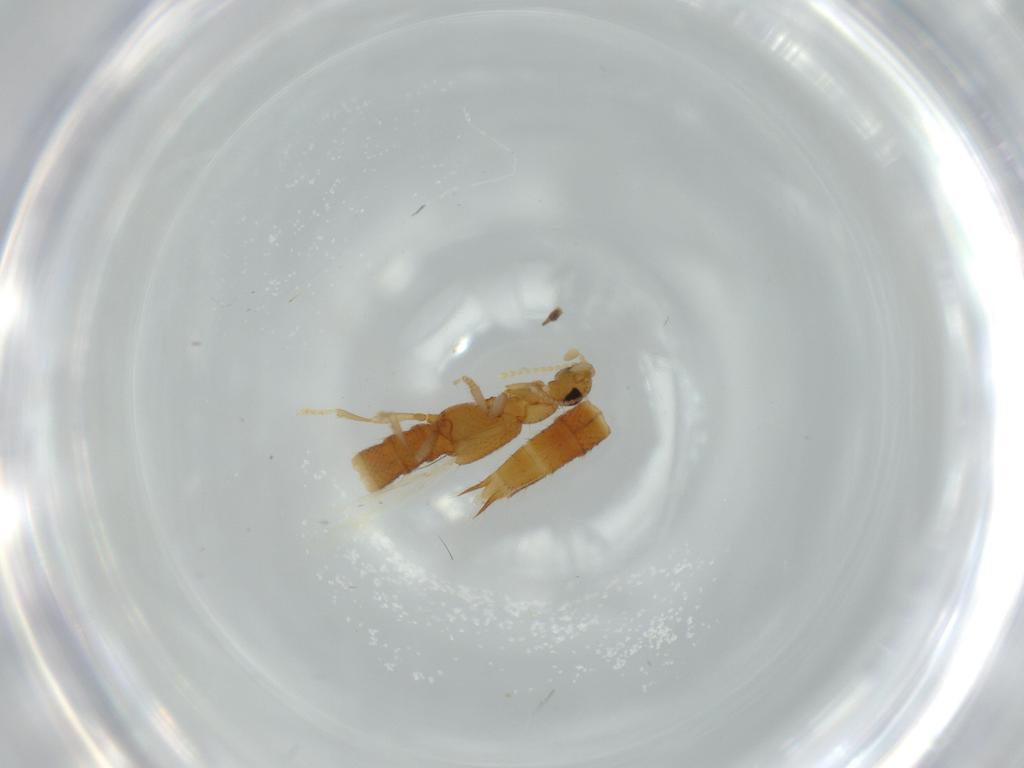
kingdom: Animalia
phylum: Arthropoda
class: Insecta
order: Coleoptera
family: Staphylinidae
